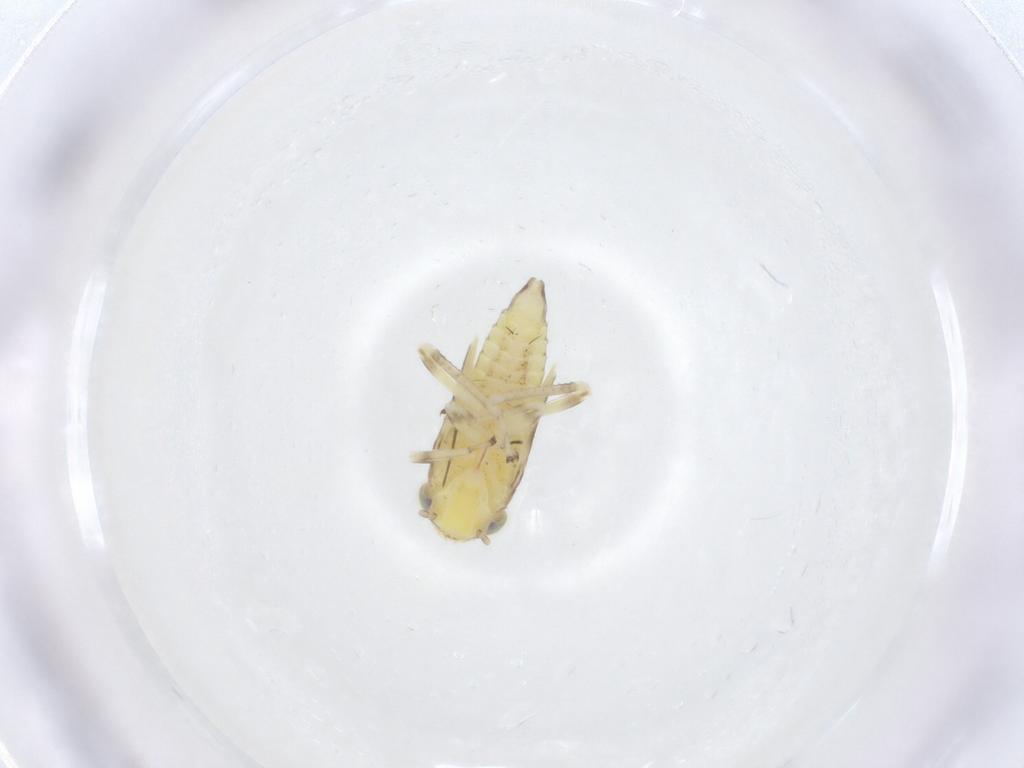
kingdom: Animalia
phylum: Arthropoda
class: Insecta
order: Hemiptera
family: Cicadellidae
